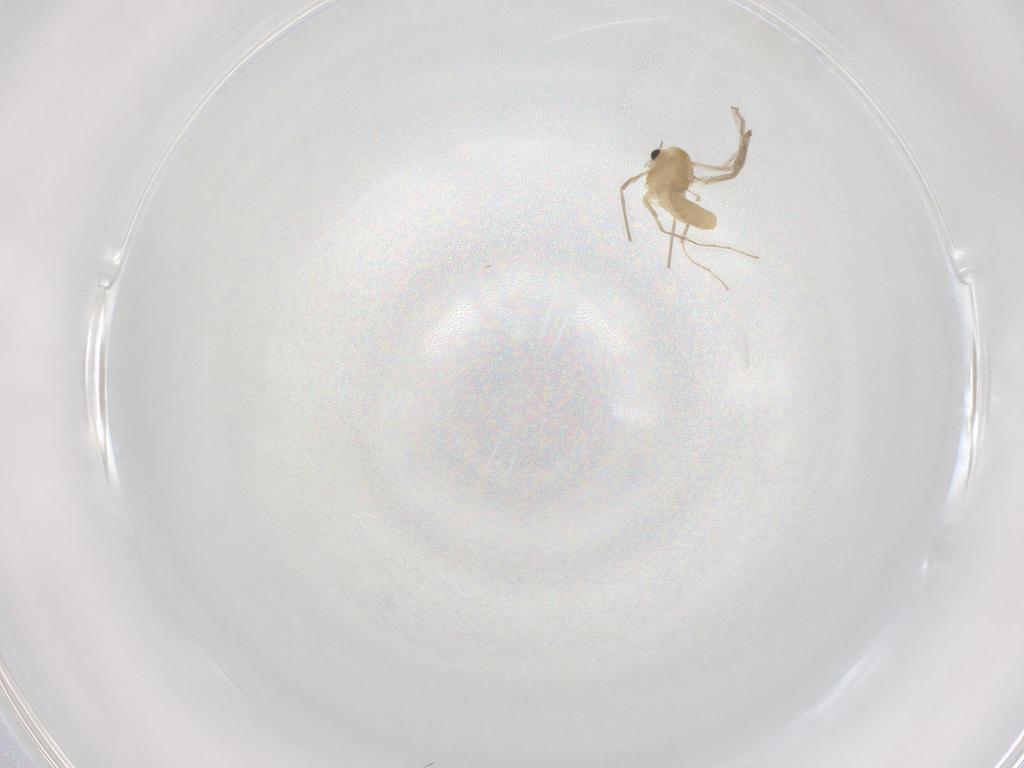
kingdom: Animalia
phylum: Arthropoda
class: Insecta
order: Diptera
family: Chironomidae
